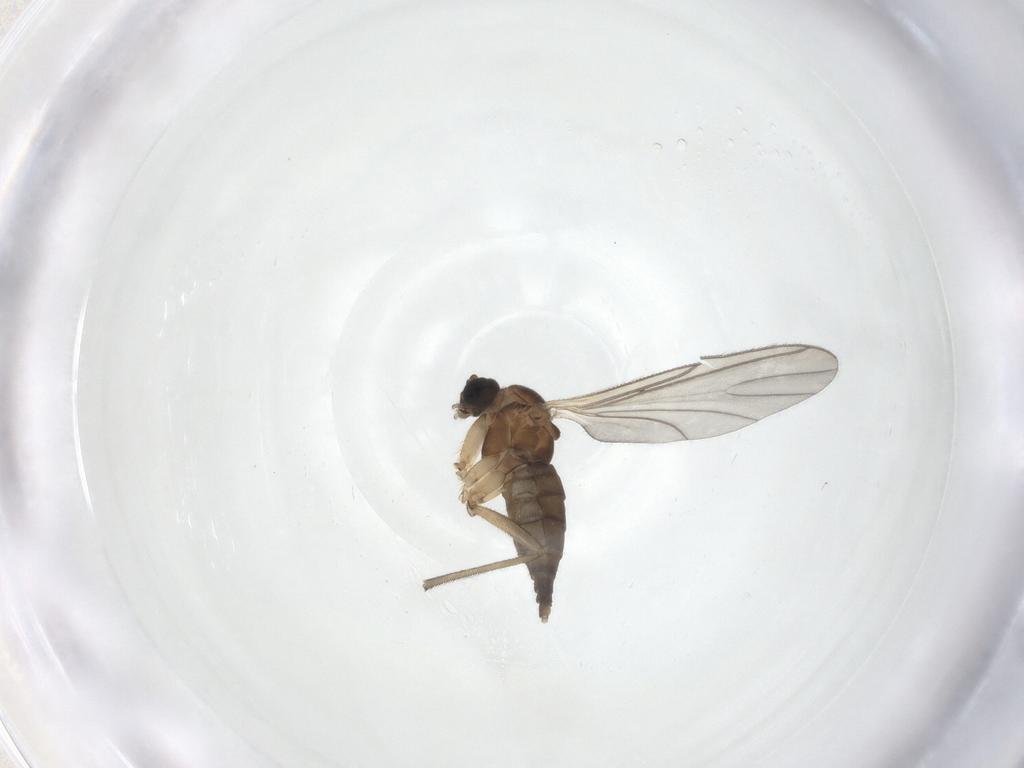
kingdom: Animalia
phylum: Arthropoda
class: Insecta
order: Diptera
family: Sciaridae
